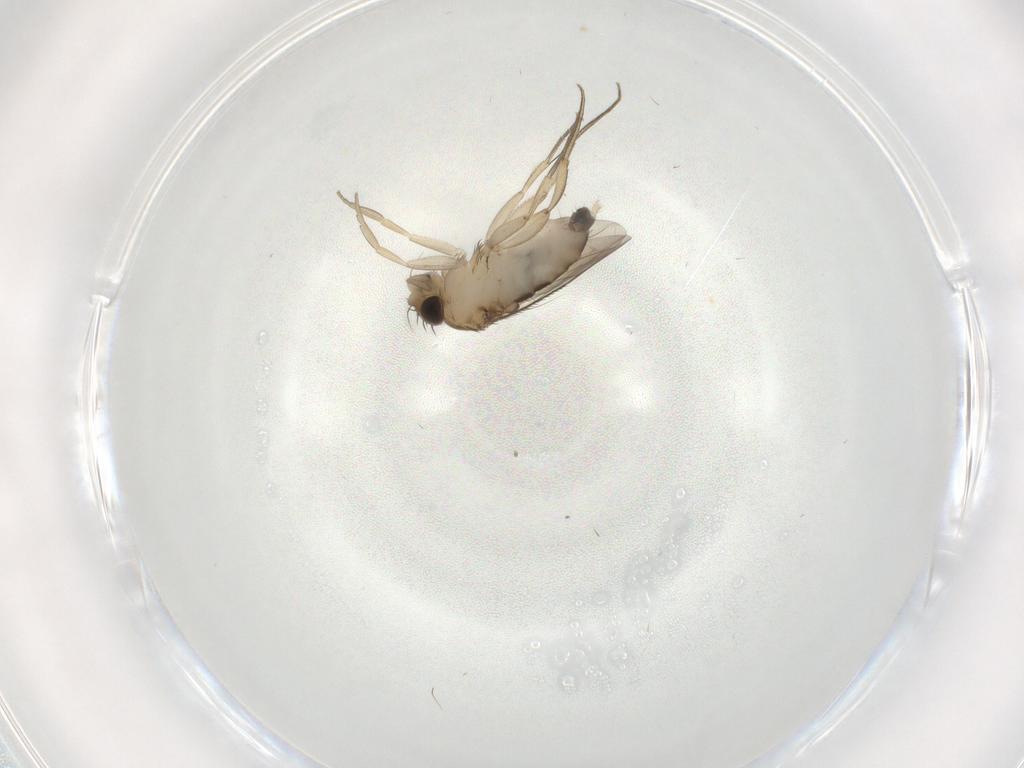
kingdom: Animalia
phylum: Arthropoda
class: Insecta
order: Diptera
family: Phoridae
